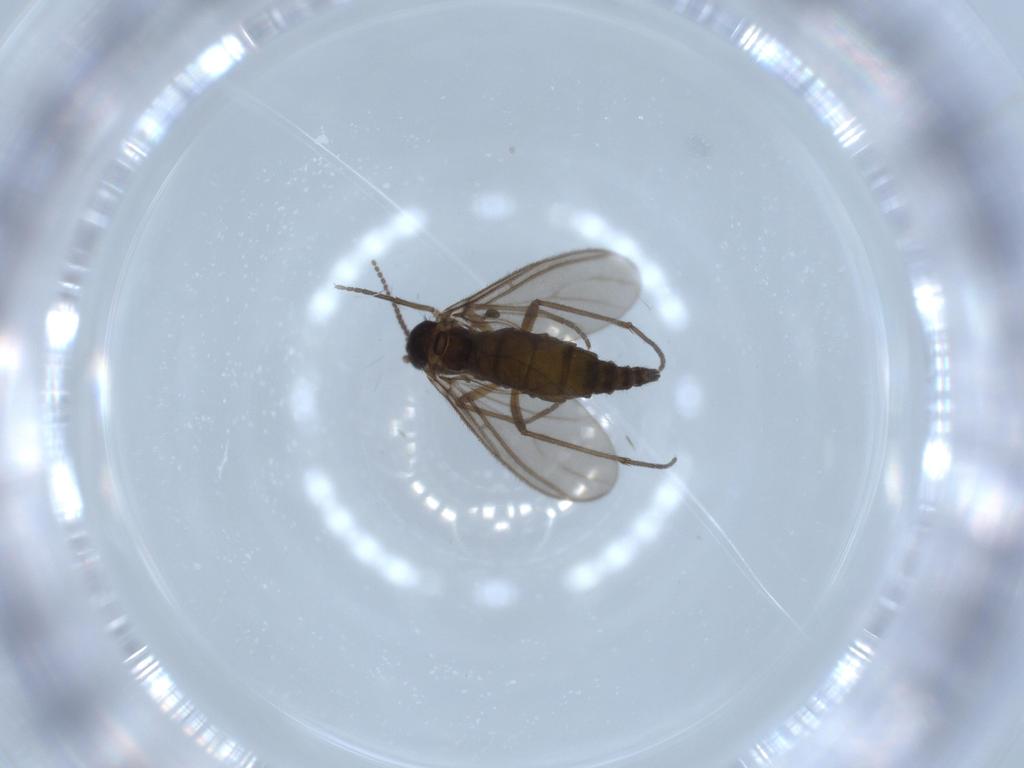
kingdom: Animalia
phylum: Arthropoda
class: Insecta
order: Diptera
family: Sciaridae
